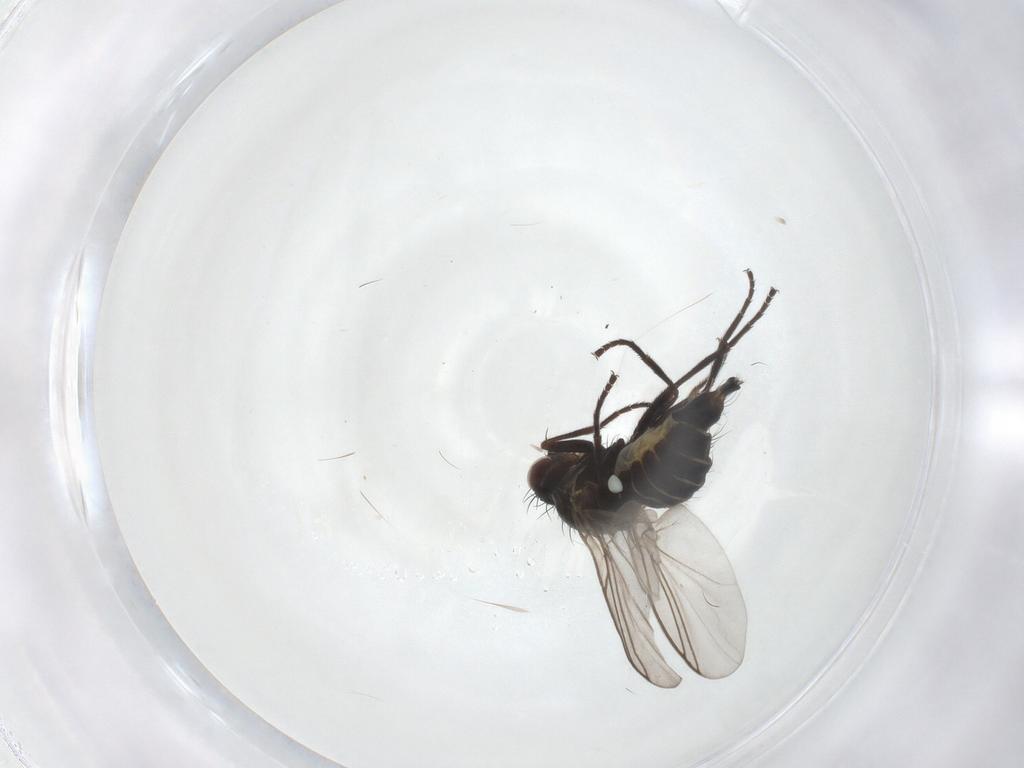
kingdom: Animalia
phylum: Arthropoda
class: Insecta
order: Diptera
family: Agromyzidae
